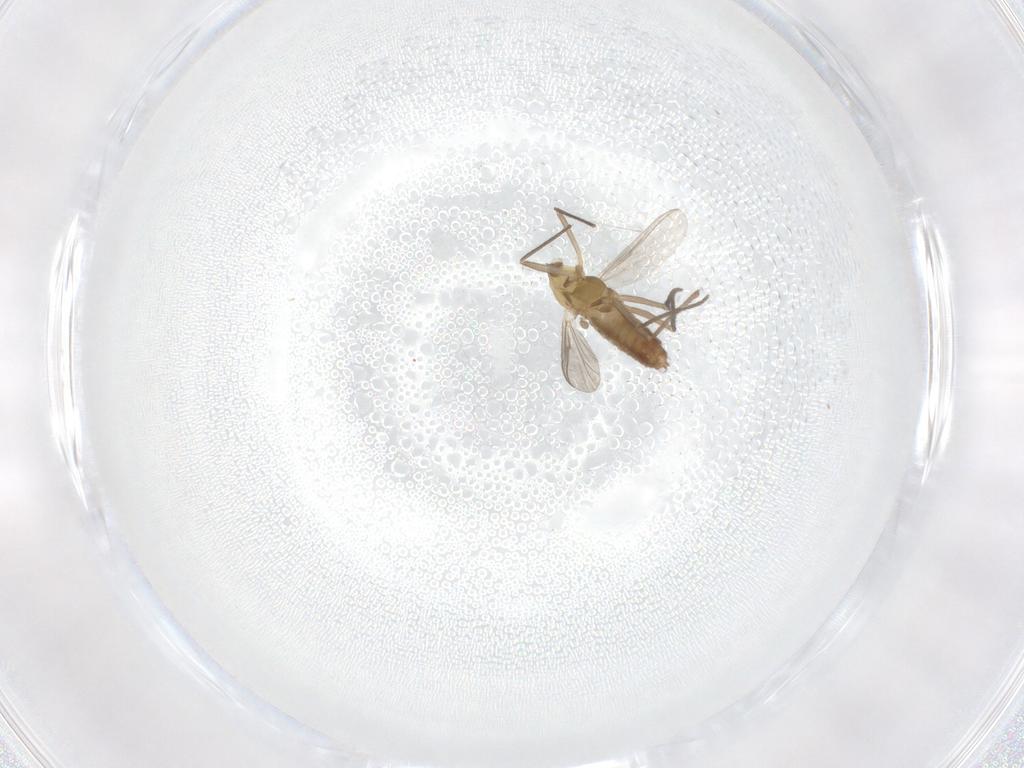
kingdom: Animalia
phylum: Arthropoda
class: Insecta
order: Diptera
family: Chironomidae
